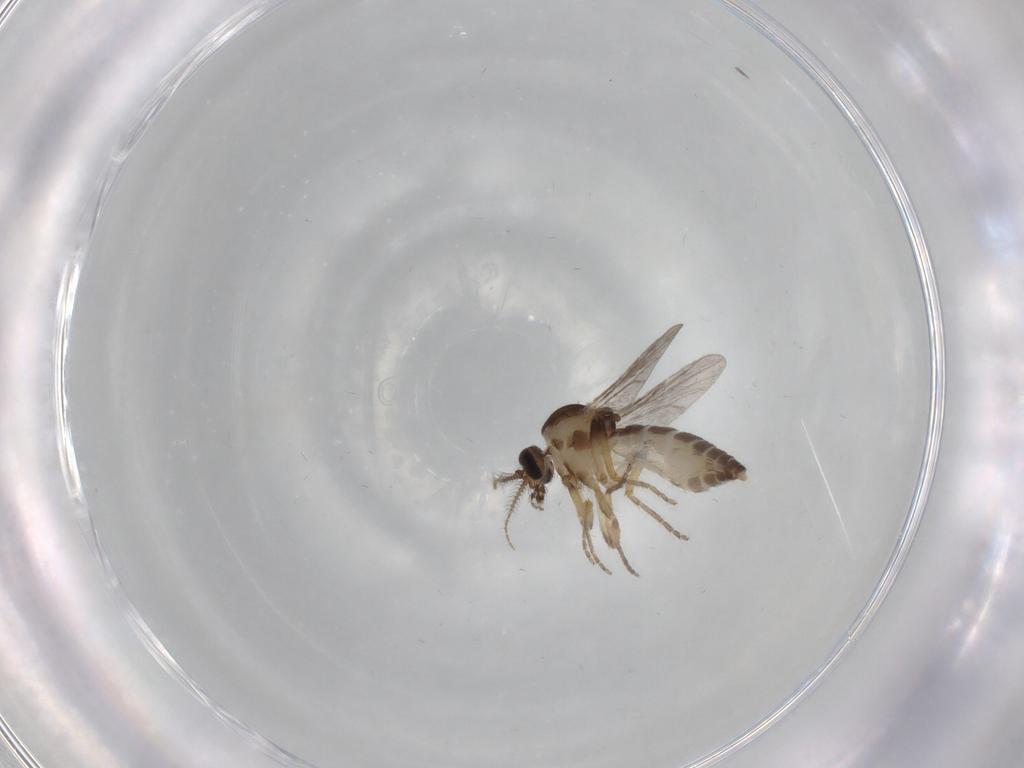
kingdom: Animalia
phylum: Arthropoda
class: Insecta
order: Diptera
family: Ceratopogonidae
